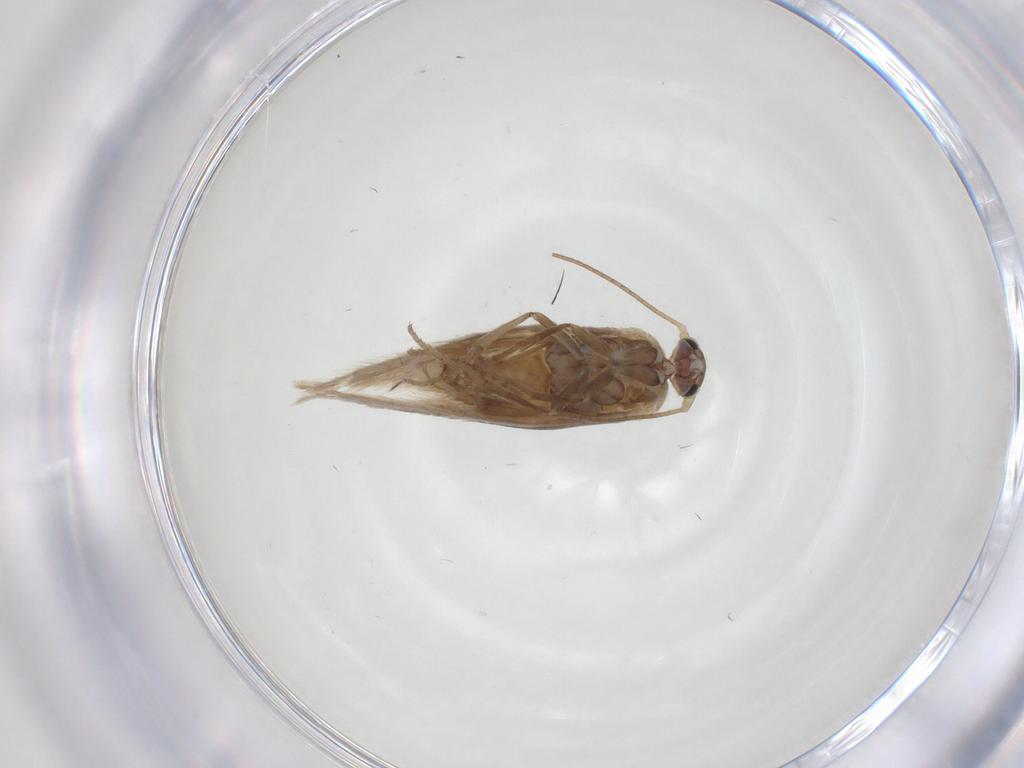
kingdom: Animalia
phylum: Arthropoda
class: Insecta
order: Lepidoptera
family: Bucculatricidae
